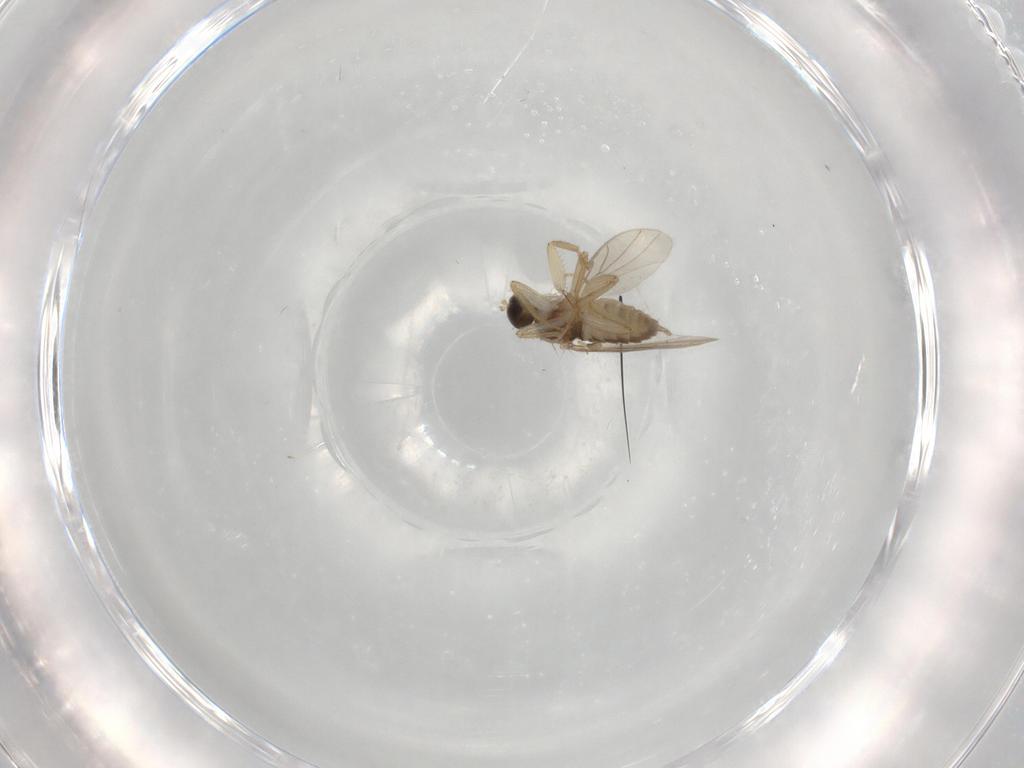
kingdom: Animalia
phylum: Arthropoda
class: Insecta
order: Diptera
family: Hybotidae
